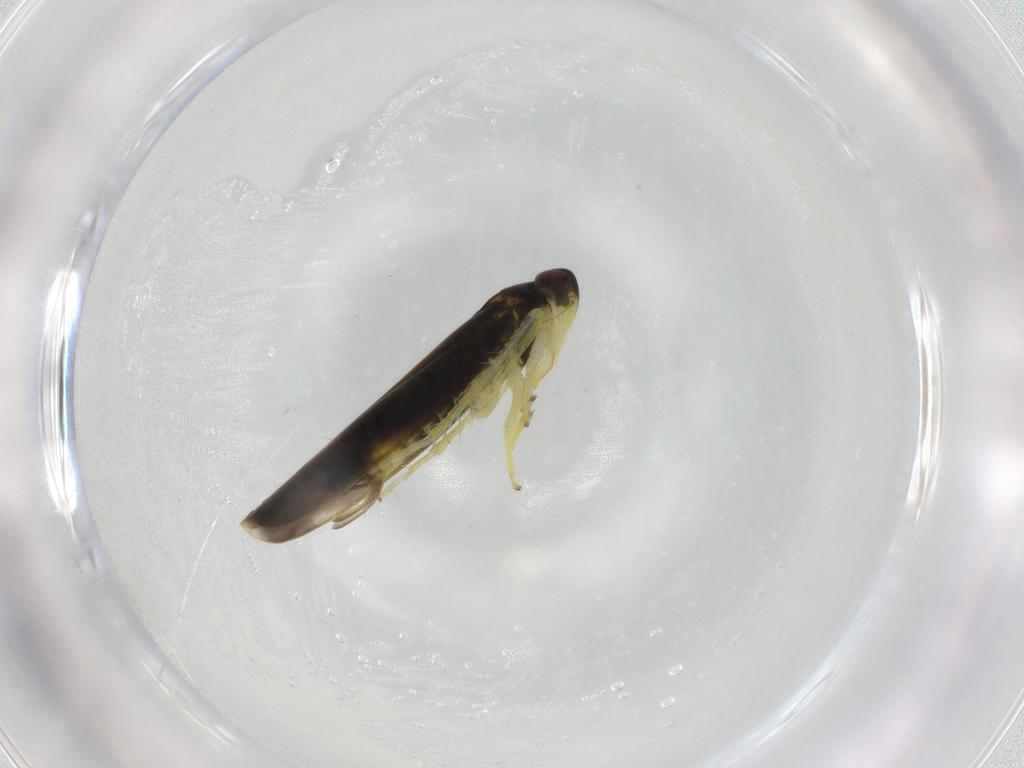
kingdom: Animalia
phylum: Arthropoda
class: Insecta
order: Hemiptera
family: Cicadellidae
